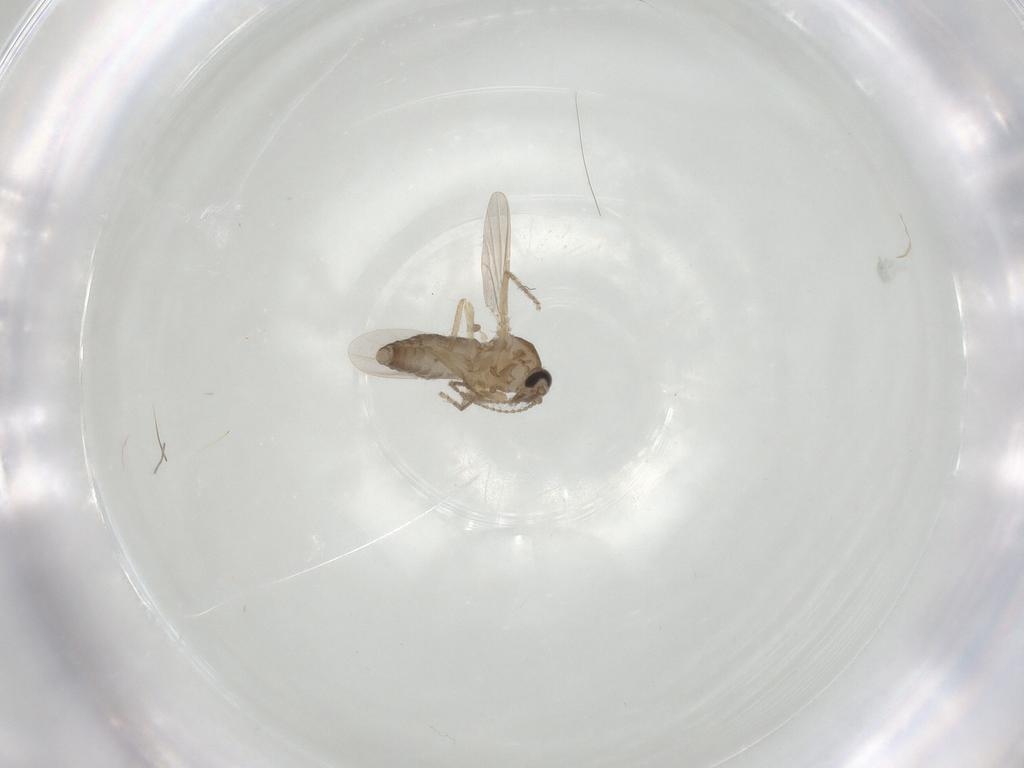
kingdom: Animalia
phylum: Arthropoda
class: Insecta
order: Diptera
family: Ceratopogonidae
